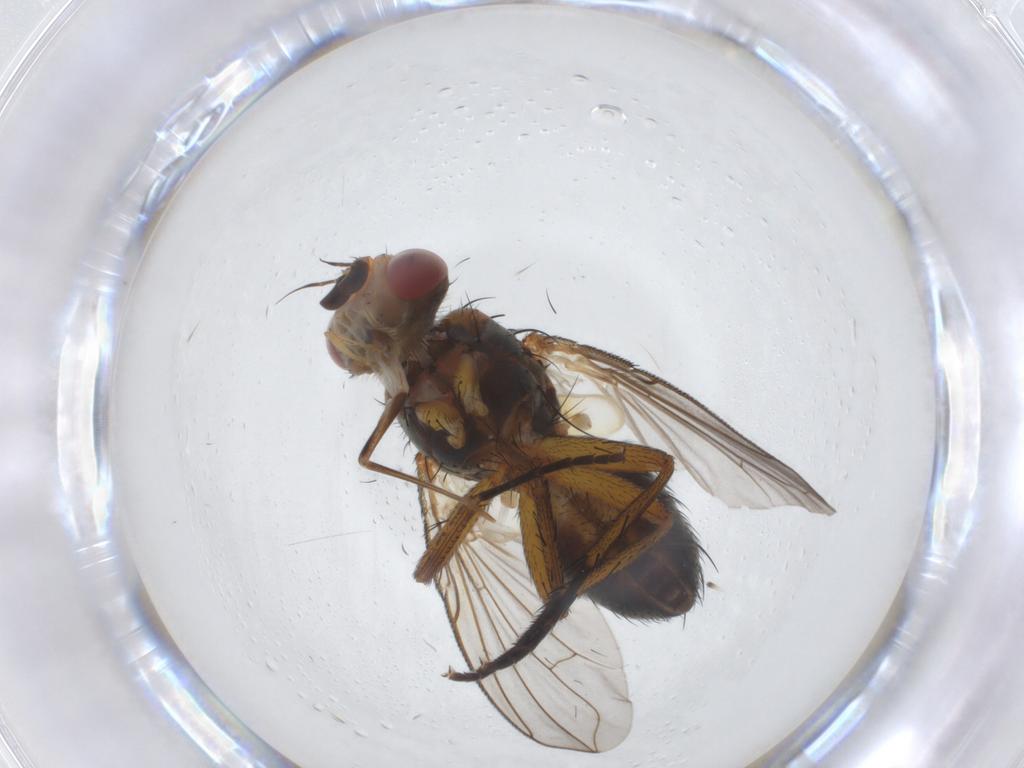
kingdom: Animalia
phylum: Arthropoda
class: Insecta
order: Diptera
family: Tachinidae
